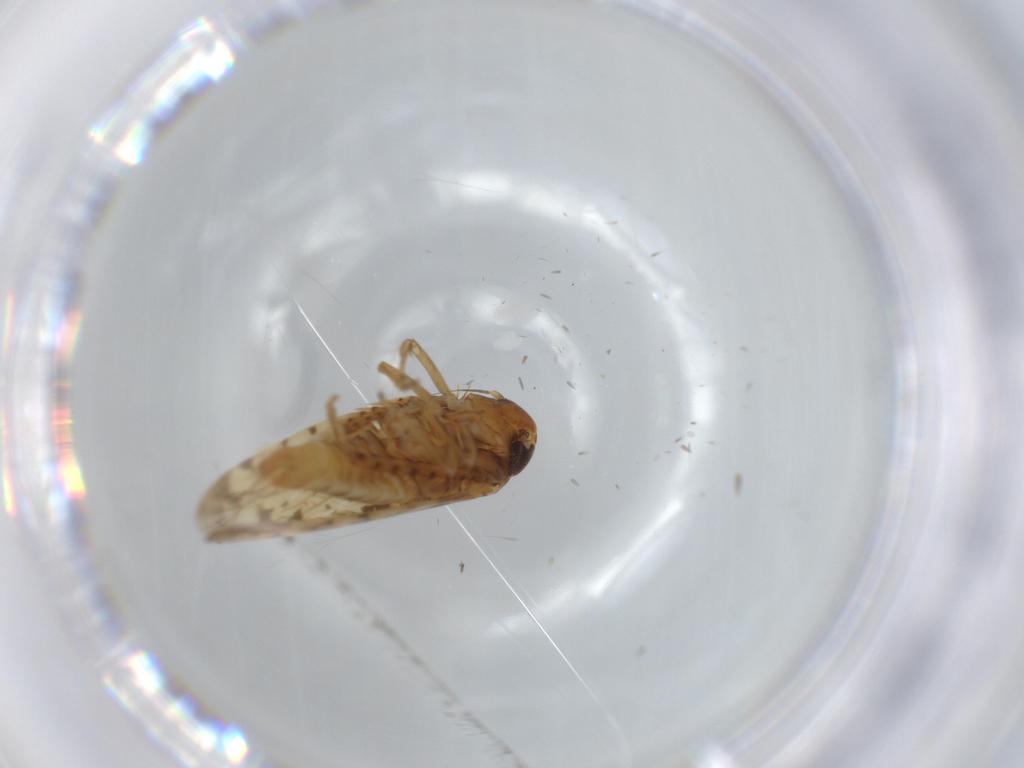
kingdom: Animalia
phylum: Arthropoda
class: Insecta
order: Hemiptera
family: Cicadellidae
